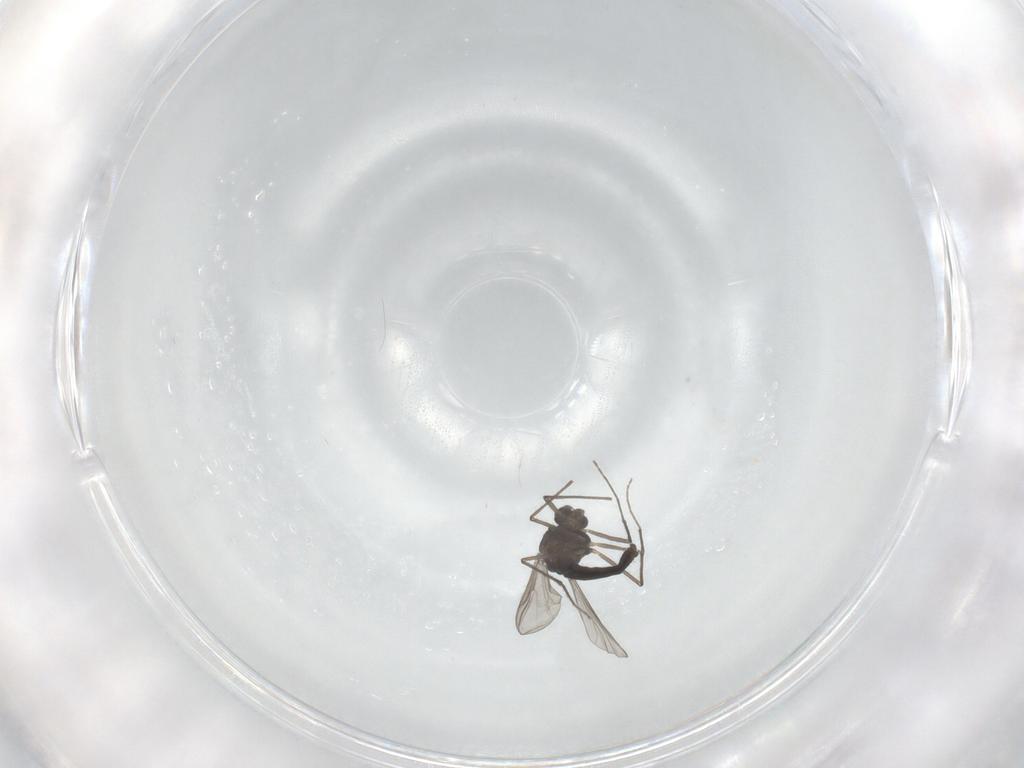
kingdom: Animalia
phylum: Arthropoda
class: Insecta
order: Diptera
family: Chironomidae
